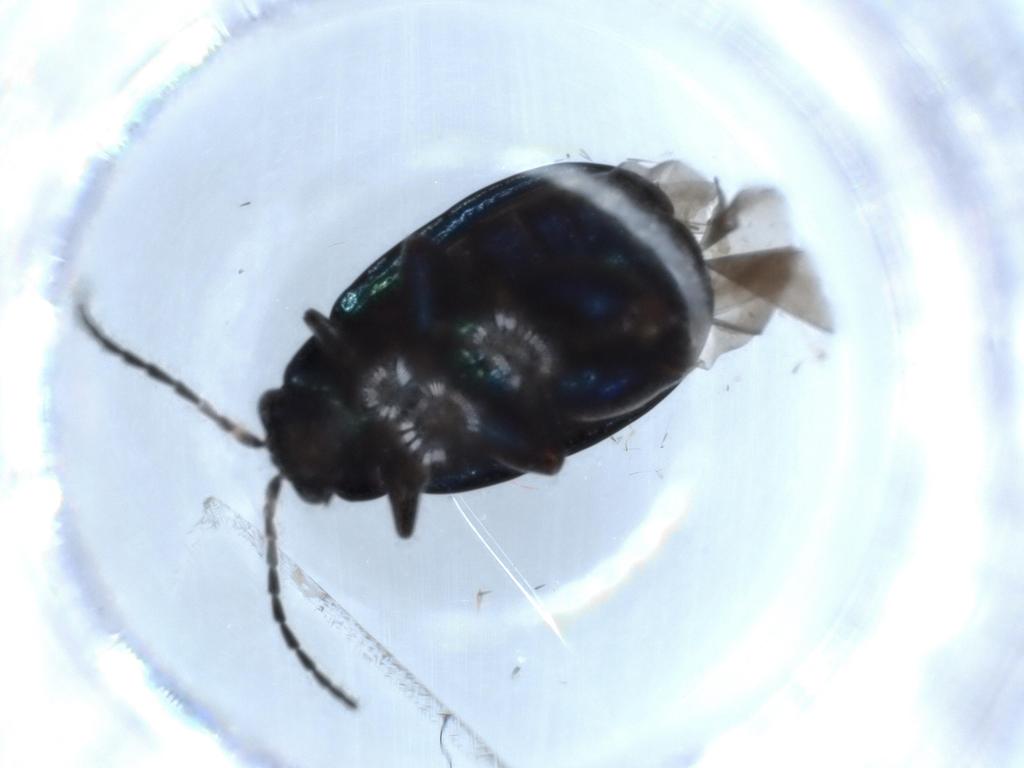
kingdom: Animalia
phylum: Arthropoda
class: Insecta
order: Coleoptera
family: Chrysomelidae
